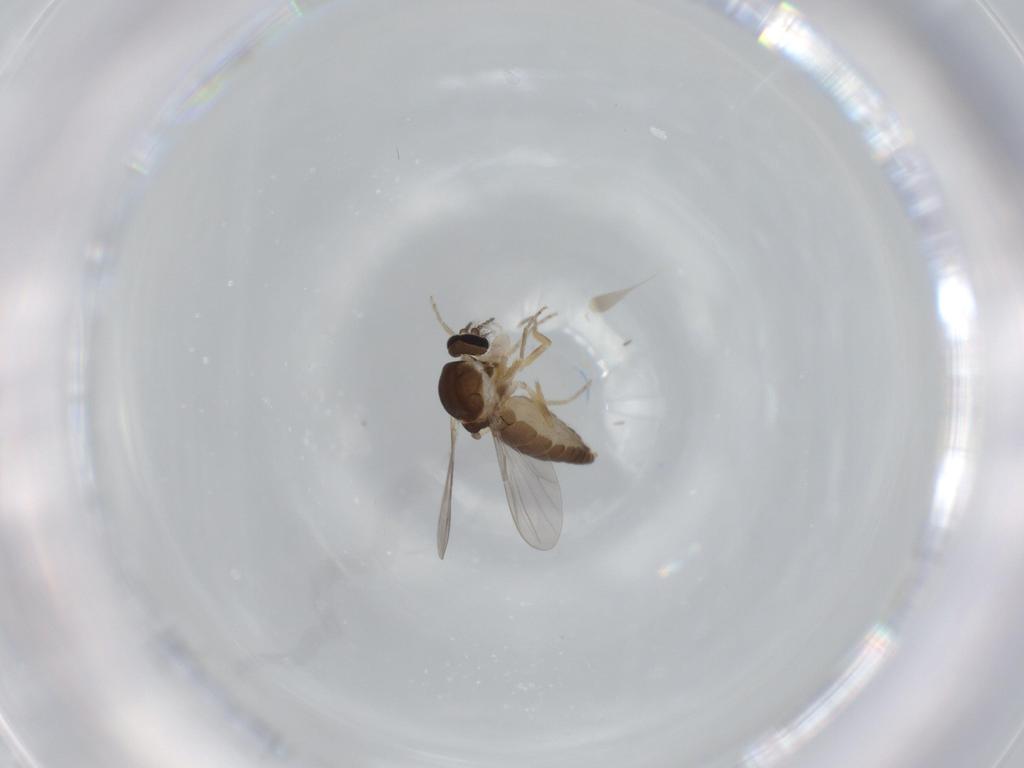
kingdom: Animalia
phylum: Arthropoda
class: Insecta
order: Diptera
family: Ceratopogonidae
